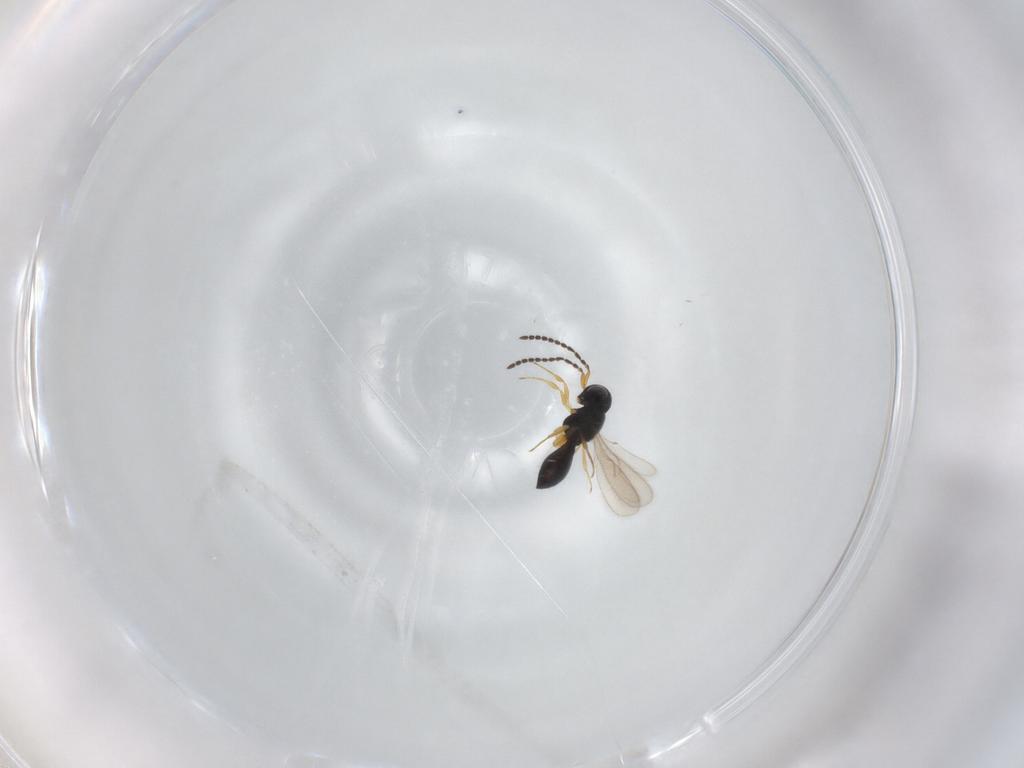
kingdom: Animalia
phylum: Arthropoda
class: Insecta
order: Hymenoptera
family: Scelionidae
